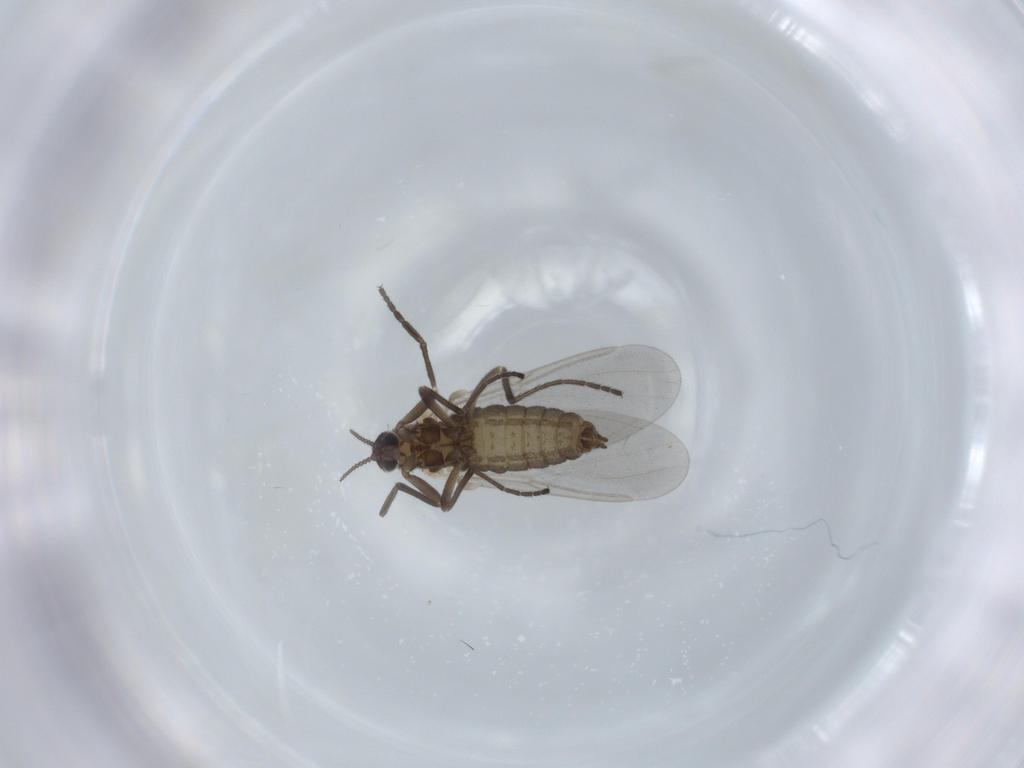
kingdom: Animalia
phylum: Arthropoda
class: Insecta
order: Diptera
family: Cecidomyiidae
